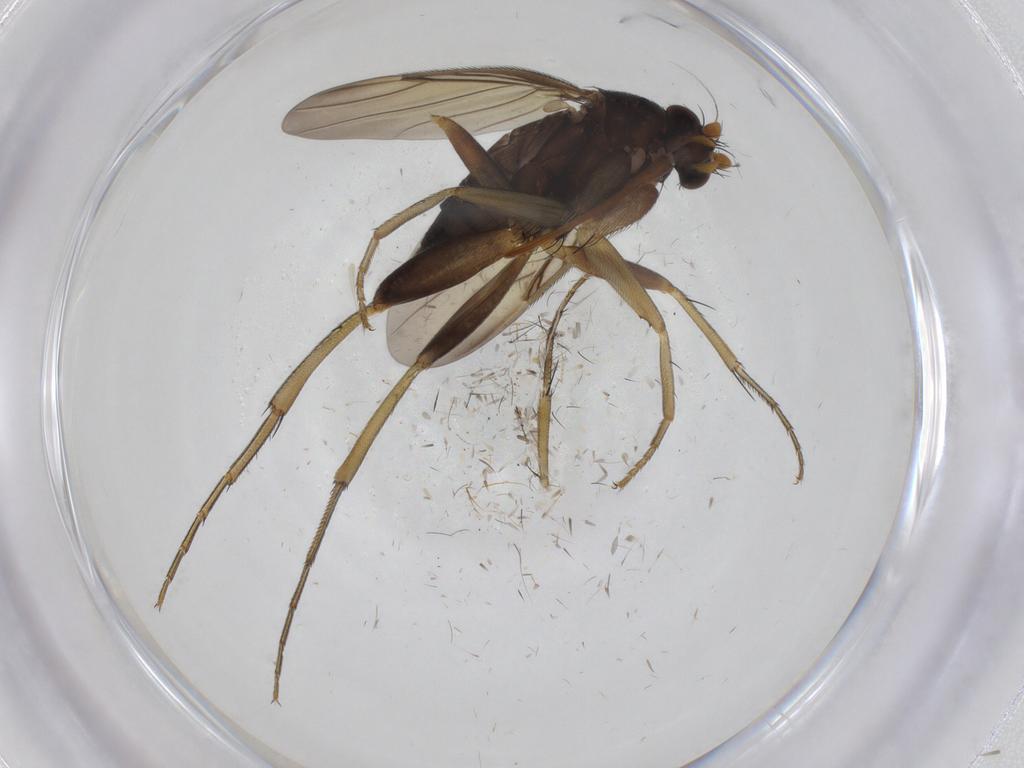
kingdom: Animalia
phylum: Arthropoda
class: Insecta
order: Diptera
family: Phoridae
